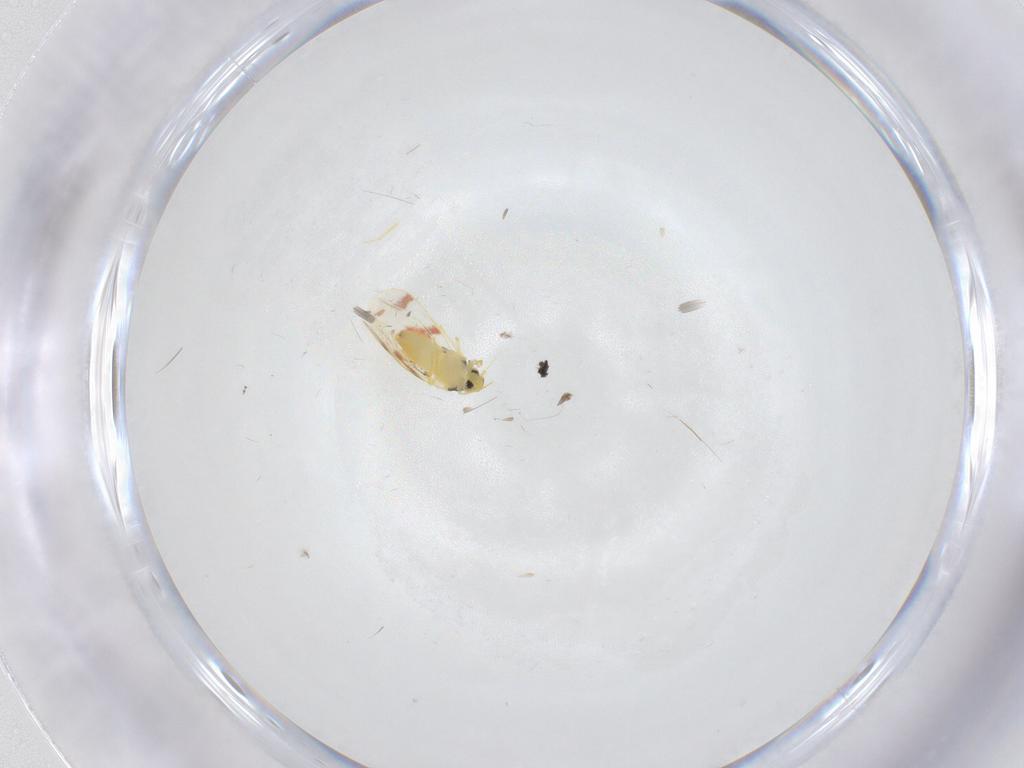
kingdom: Animalia
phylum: Arthropoda
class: Insecta
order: Hemiptera
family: Aleyrodidae
